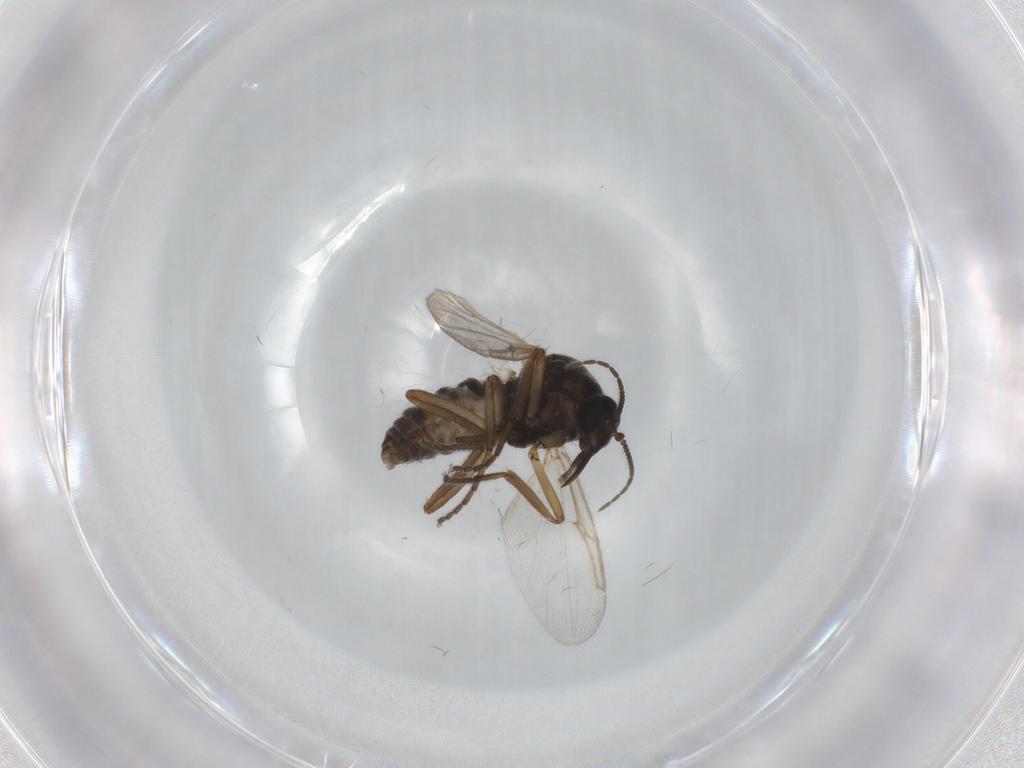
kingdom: Animalia
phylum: Arthropoda
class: Insecta
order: Diptera
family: Ceratopogonidae
